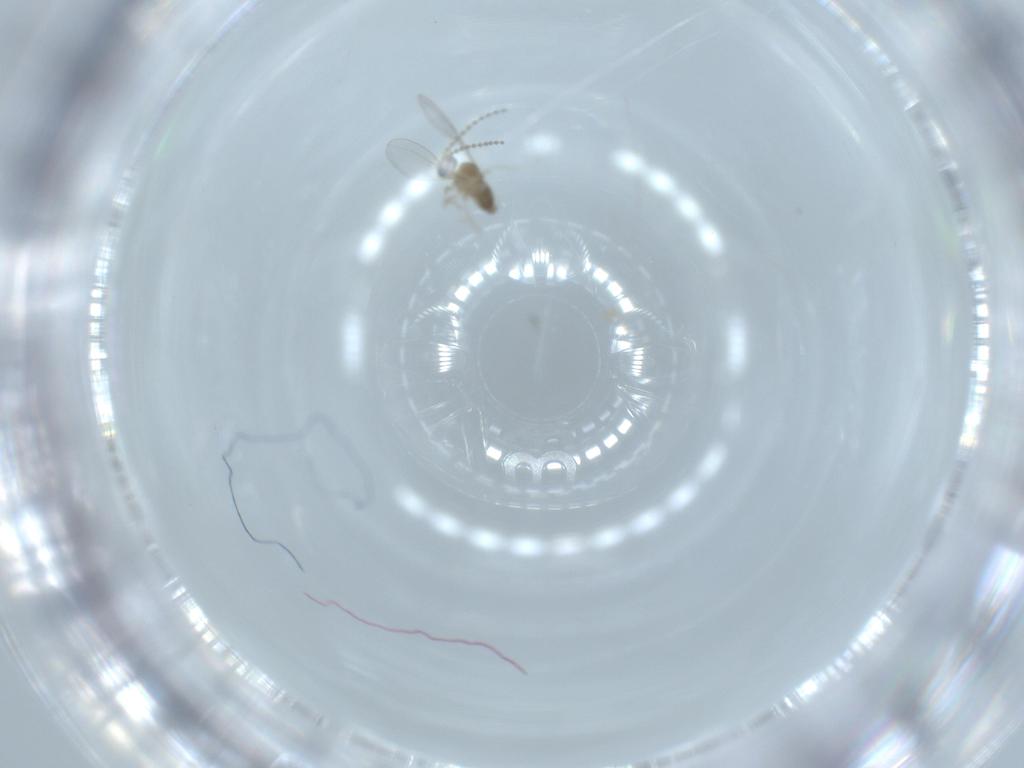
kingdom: Animalia
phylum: Arthropoda
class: Insecta
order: Diptera
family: Cecidomyiidae
